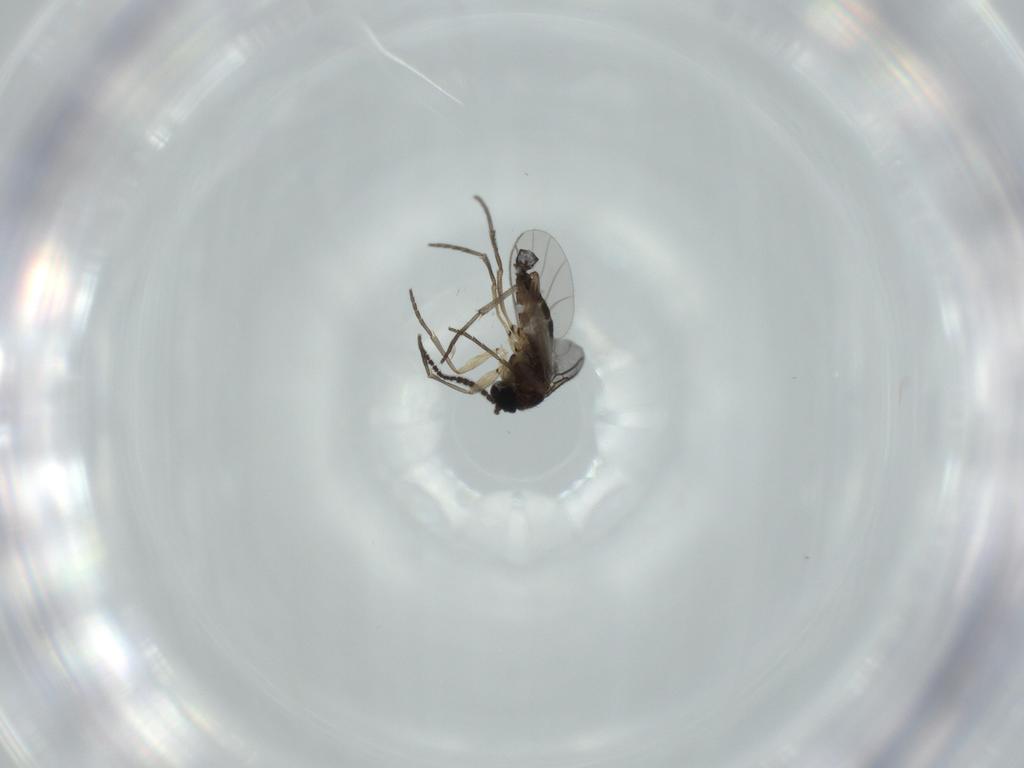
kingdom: Animalia
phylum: Arthropoda
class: Insecta
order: Diptera
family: Sciaridae
